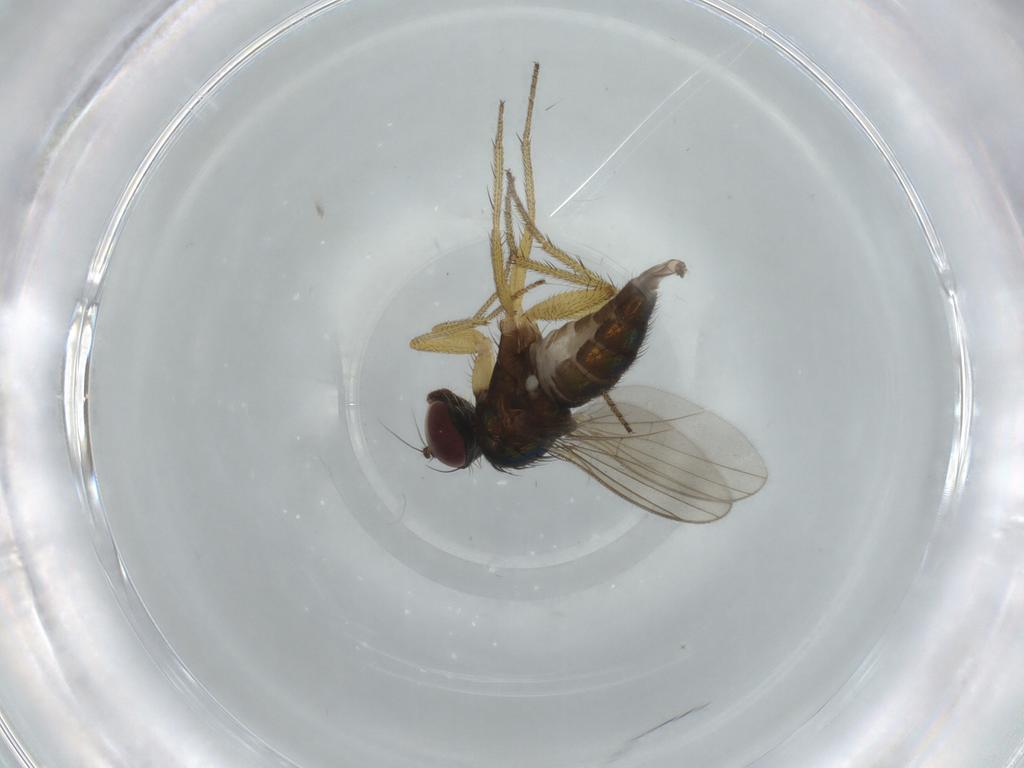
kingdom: Animalia
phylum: Arthropoda
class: Insecta
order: Diptera
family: Dolichopodidae
